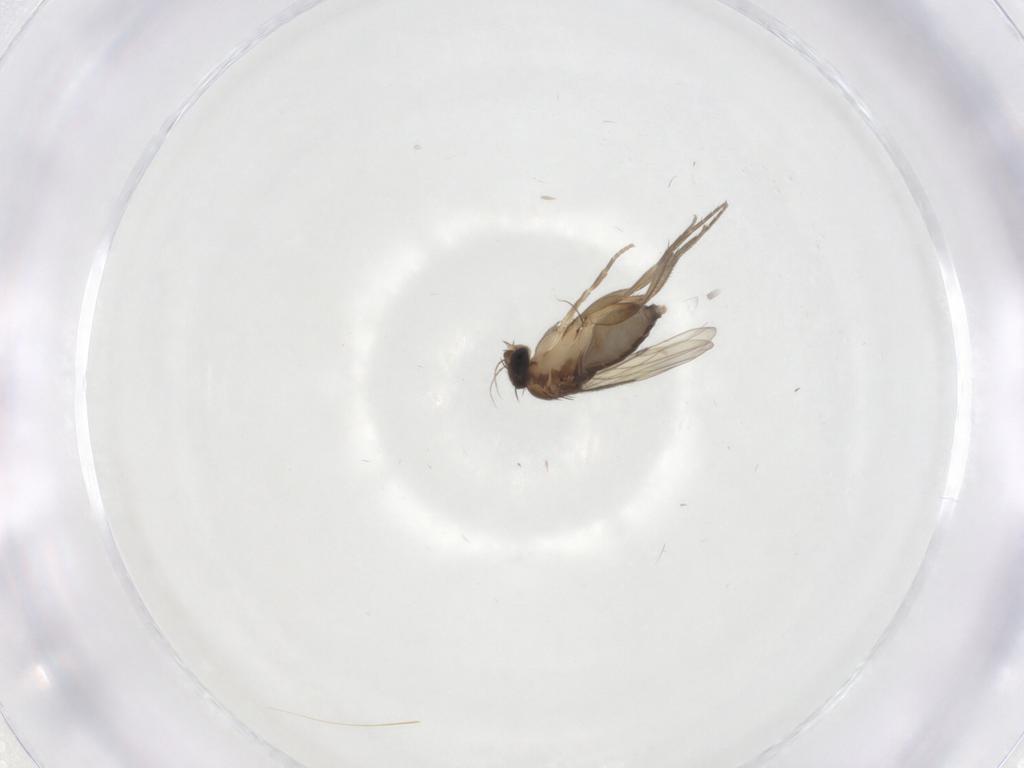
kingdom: Animalia
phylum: Arthropoda
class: Insecta
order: Diptera
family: Phoridae
